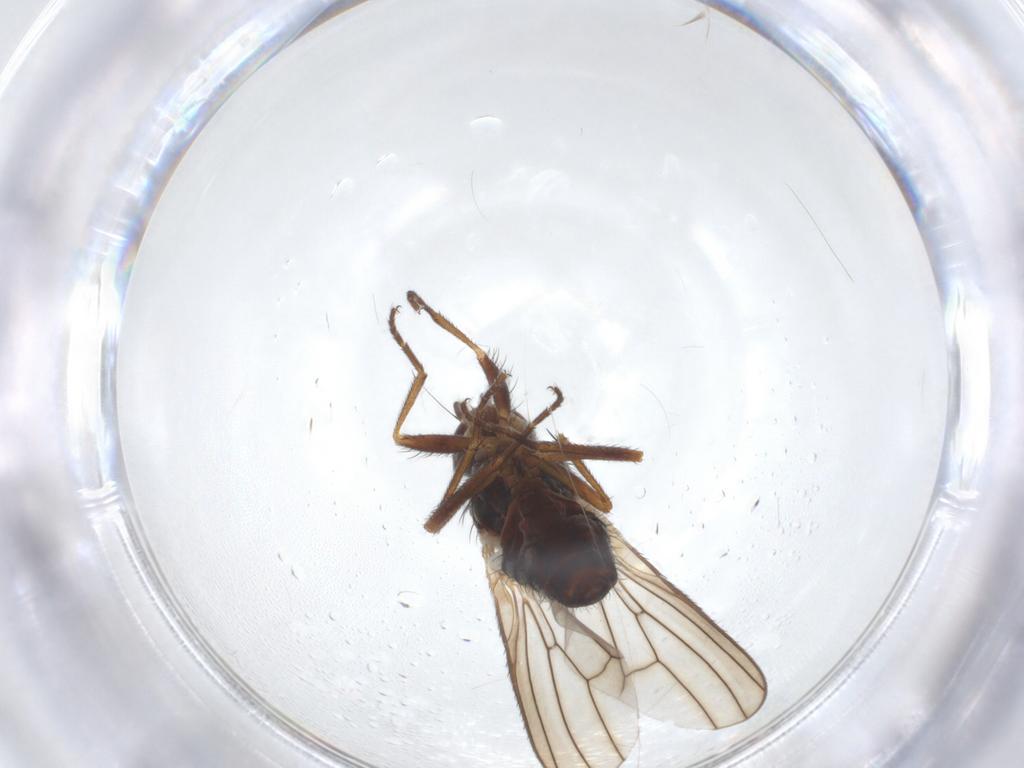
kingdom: Animalia
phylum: Arthropoda
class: Insecta
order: Diptera
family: Heleomyzidae
